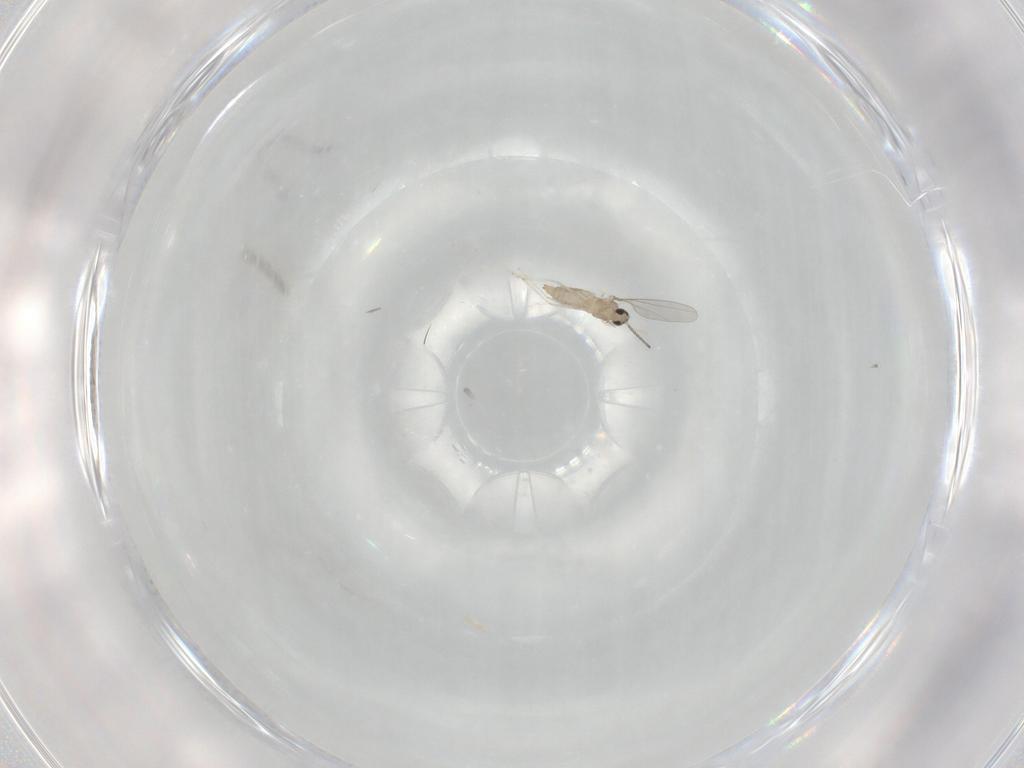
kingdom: Animalia
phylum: Arthropoda
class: Insecta
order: Diptera
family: Cecidomyiidae
